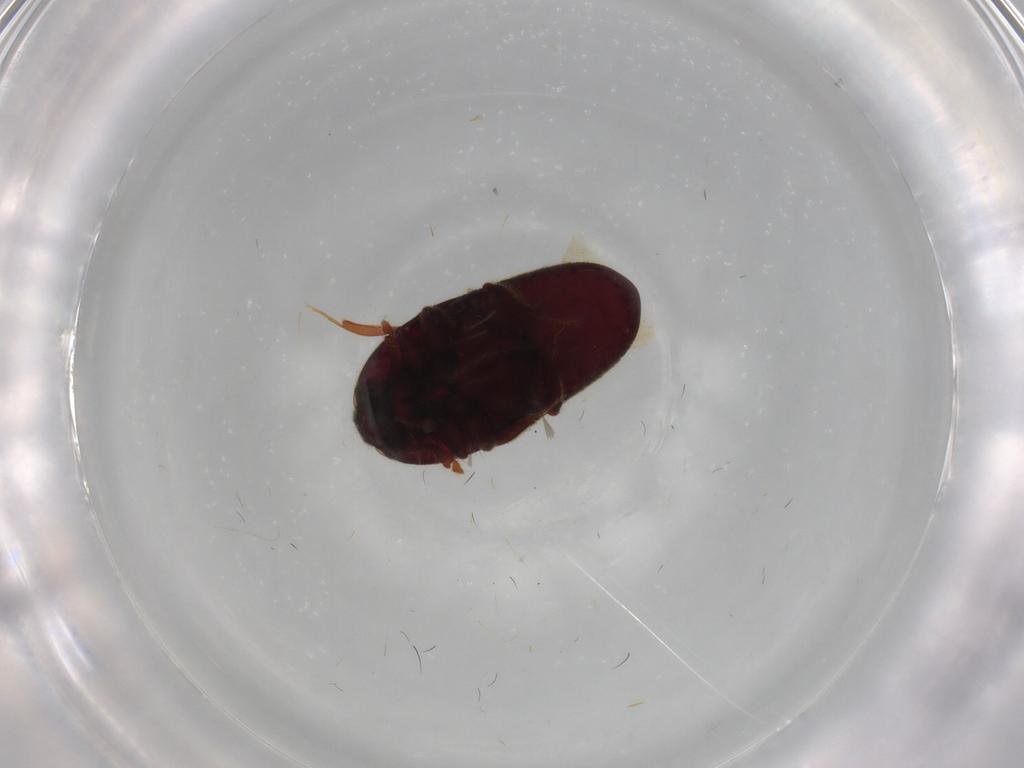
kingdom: Animalia
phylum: Arthropoda
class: Insecta
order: Coleoptera
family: Throscidae
